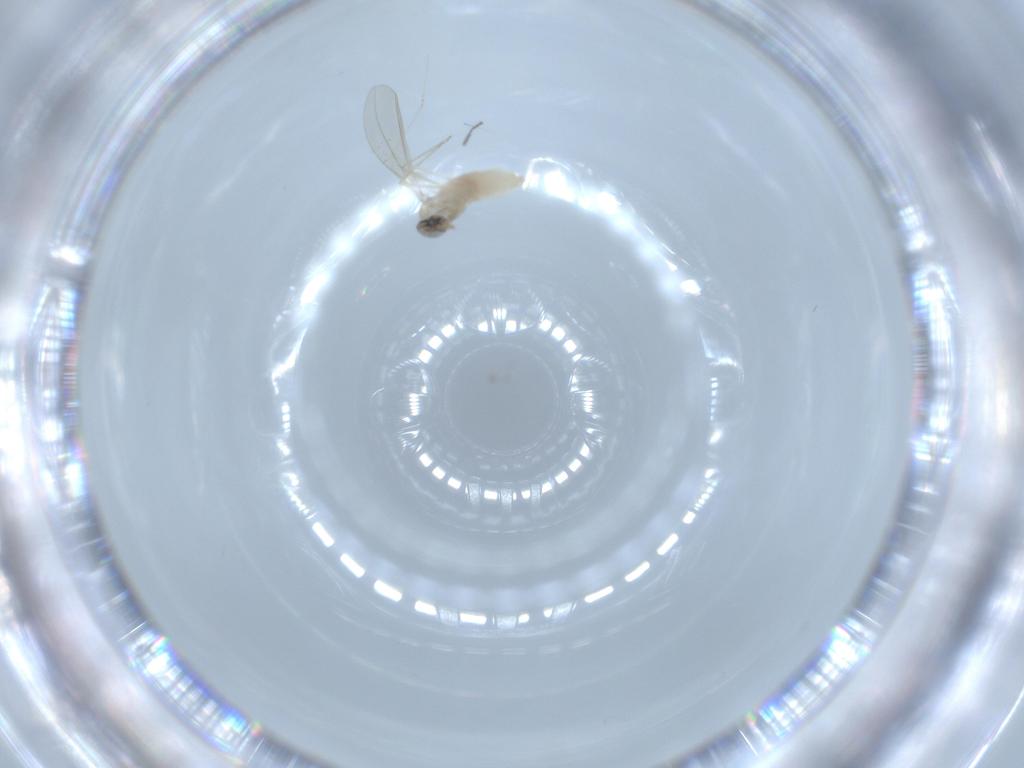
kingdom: Animalia
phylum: Arthropoda
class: Insecta
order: Diptera
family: Cecidomyiidae
